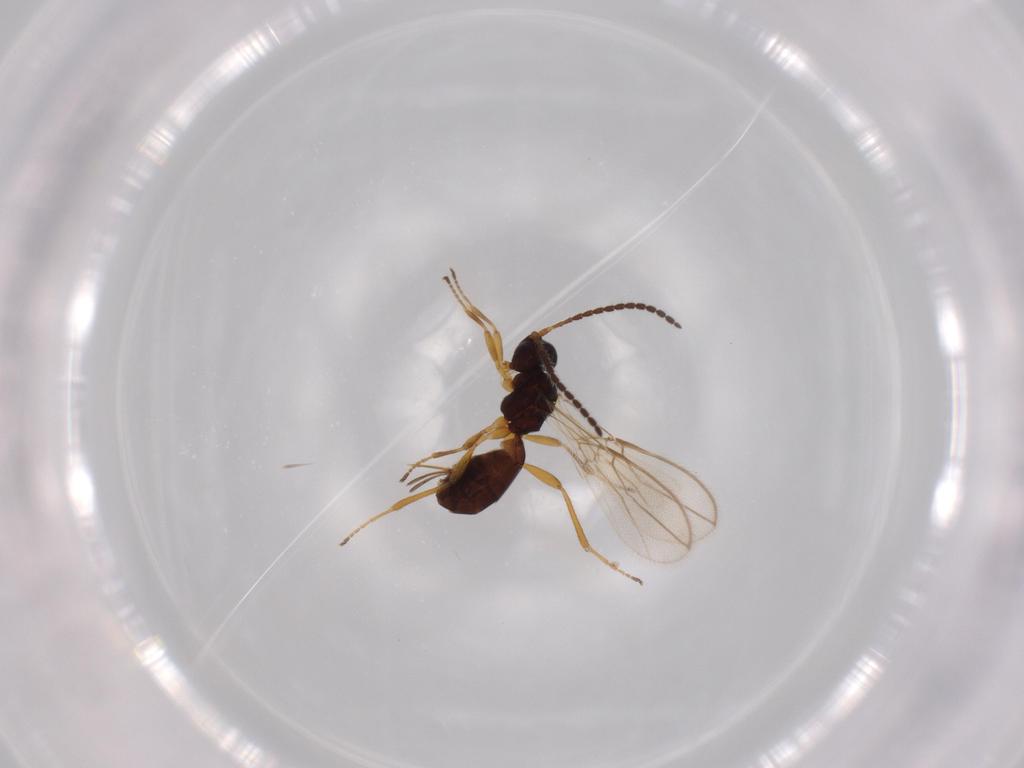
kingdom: Animalia
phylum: Arthropoda
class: Insecta
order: Hymenoptera
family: Braconidae
